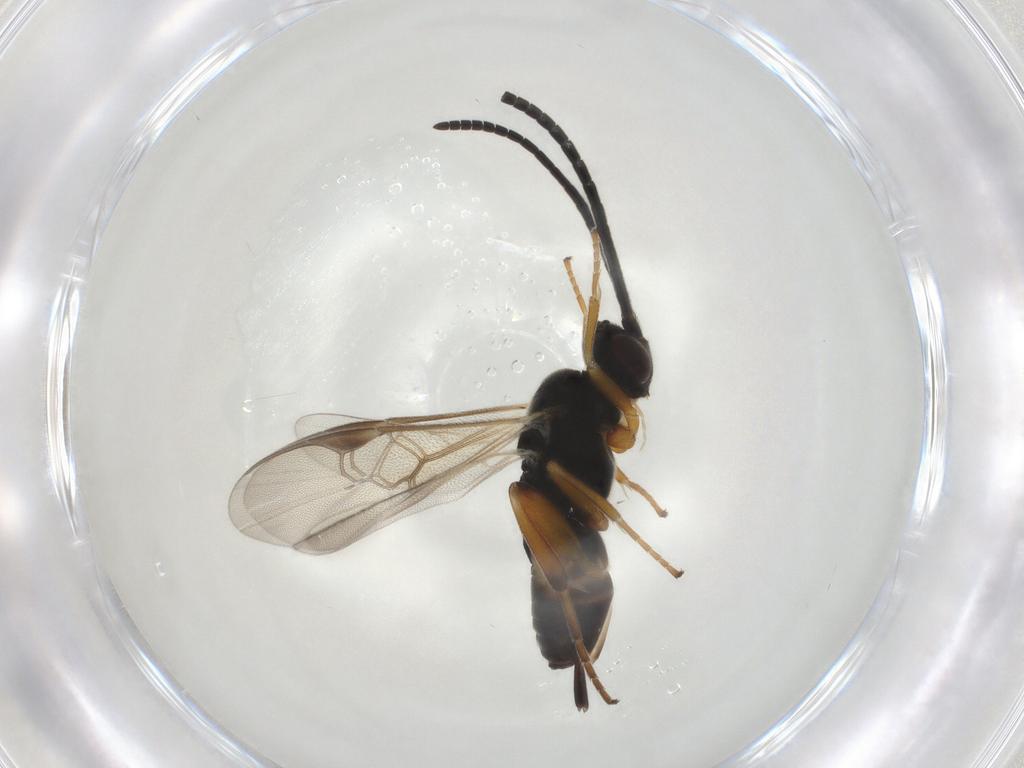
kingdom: Animalia
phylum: Arthropoda
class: Insecta
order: Hymenoptera
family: Braconidae
